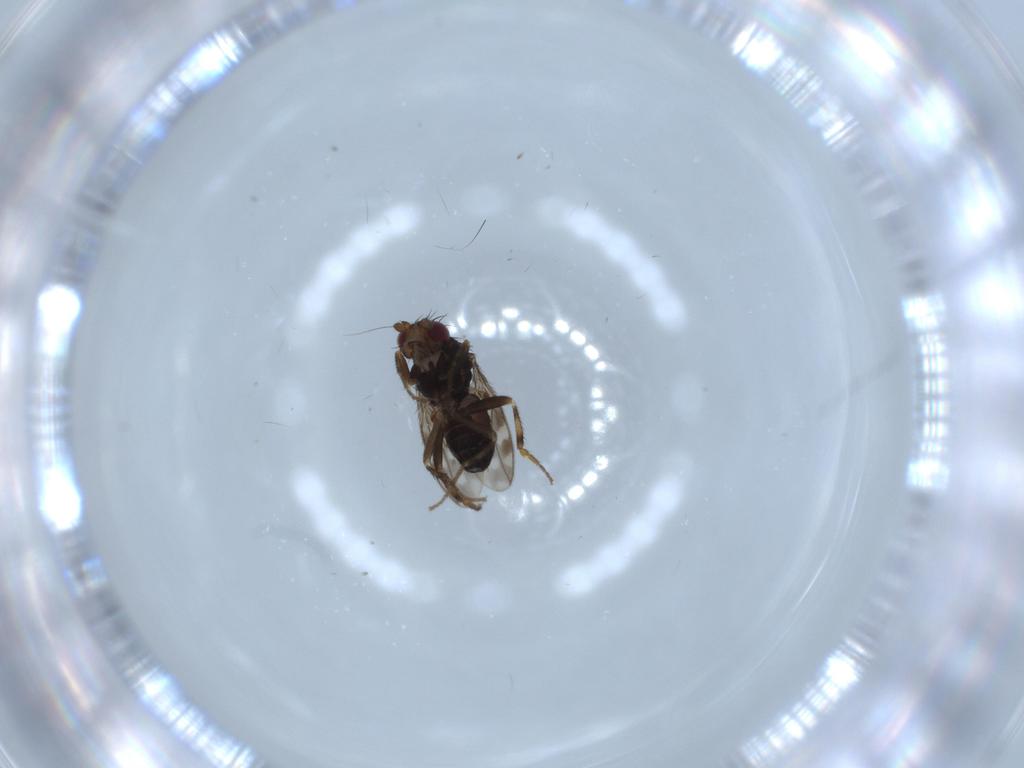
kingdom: Animalia
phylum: Arthropoda
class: Insecta
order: Diptera
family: Sphaeroceridae
